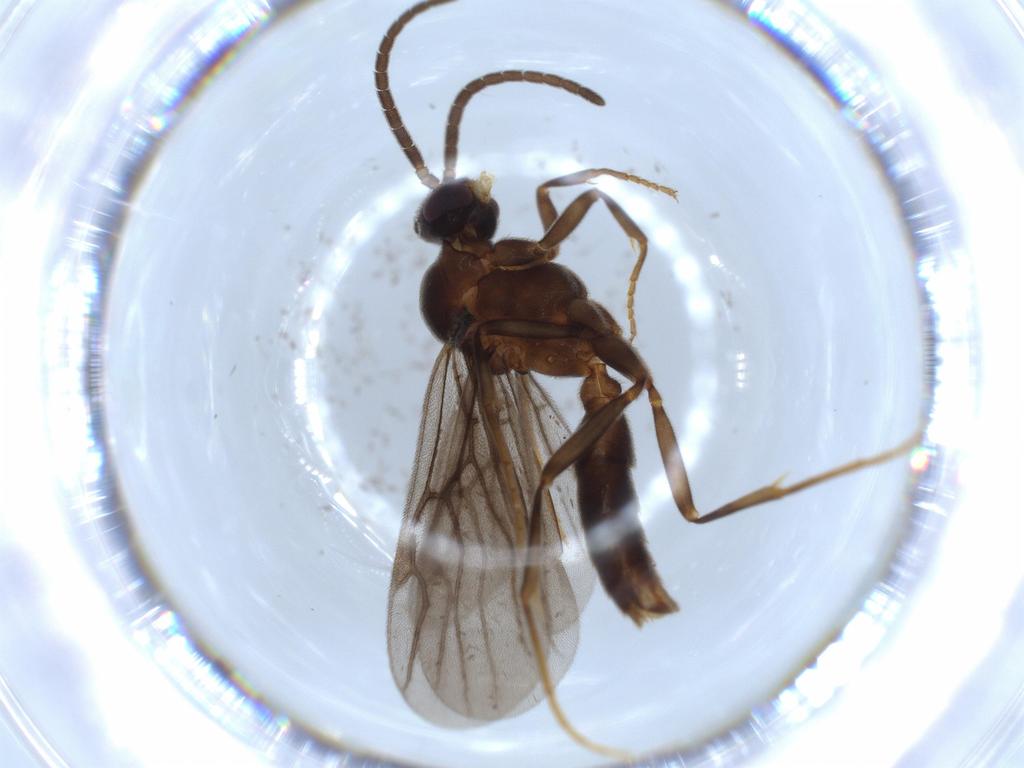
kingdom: Animalia
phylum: Arthropoda
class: Insecta
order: Hymenoptera
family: Formicidae
